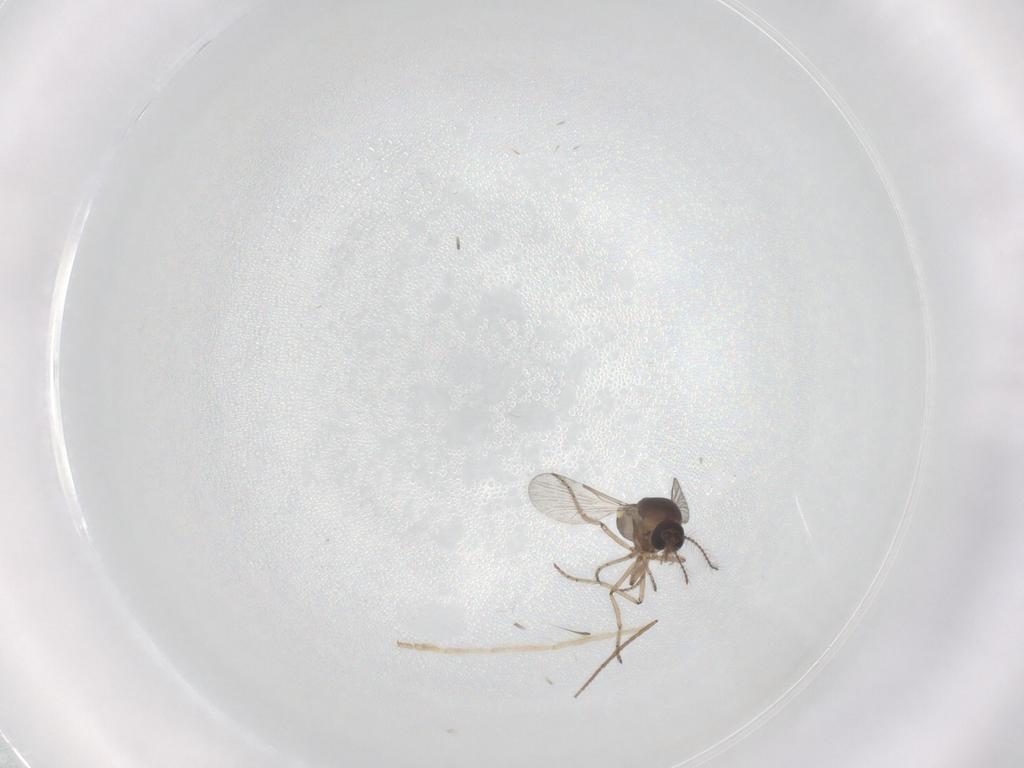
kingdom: Animalia
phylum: Arthropoda
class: Insecta
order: Diptera
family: Ceratopogonidae
